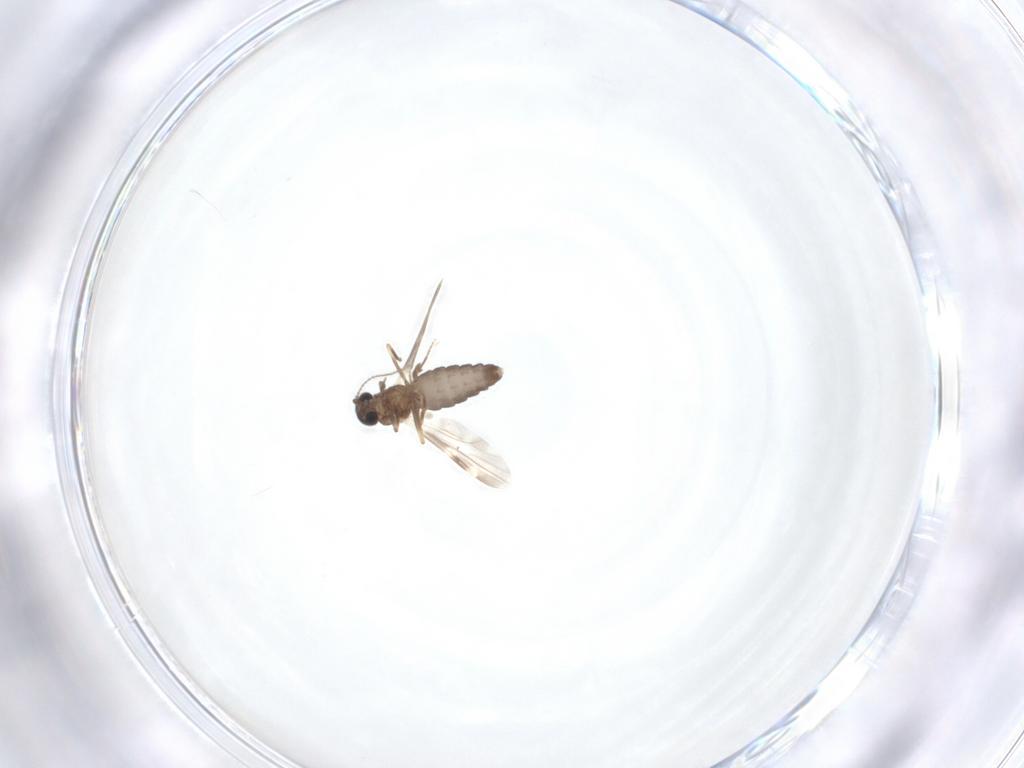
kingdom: Animalia
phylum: Arthropoda
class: Insecta
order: Diptera
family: Ceratopogonidae
